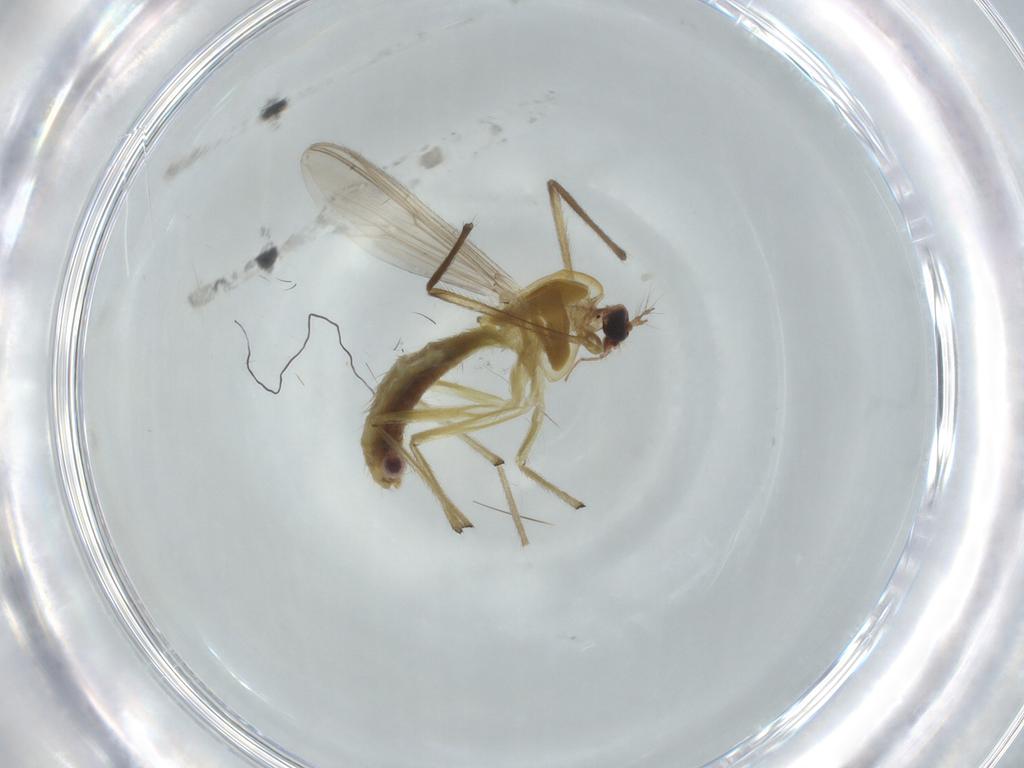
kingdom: Animalia
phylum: Arthropoda
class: Insecta
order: Diptera
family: Chironomidae
